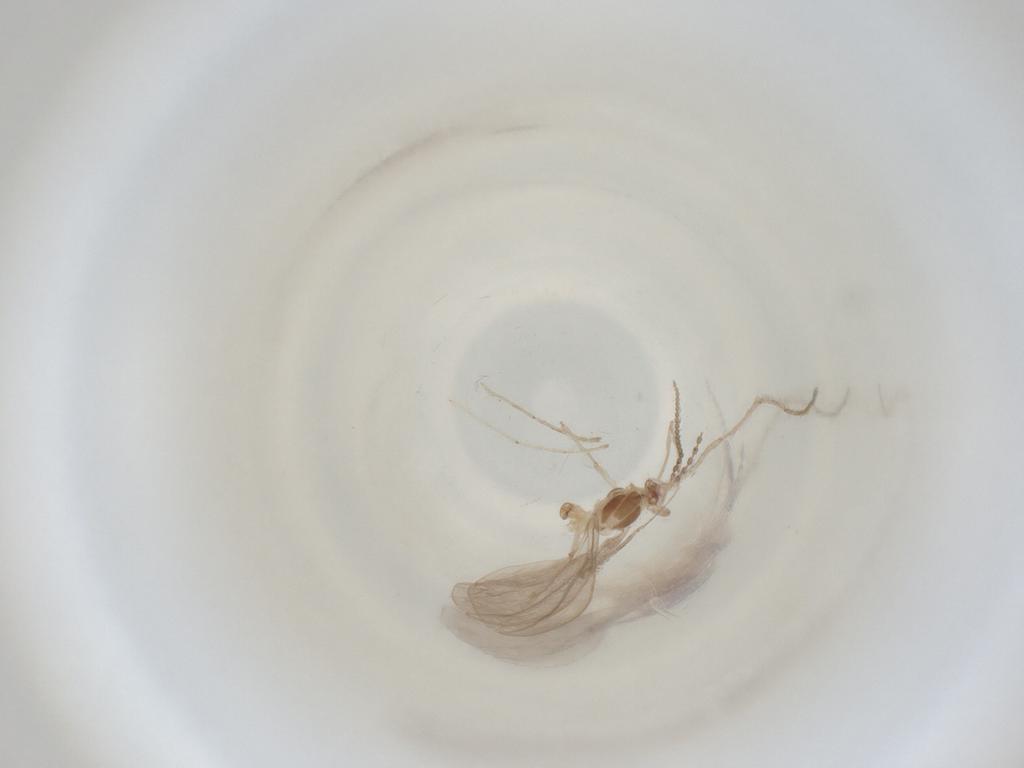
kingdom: Animalia
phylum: Arthropoda
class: Insecta
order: Diptera
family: Cecidomyiidae
